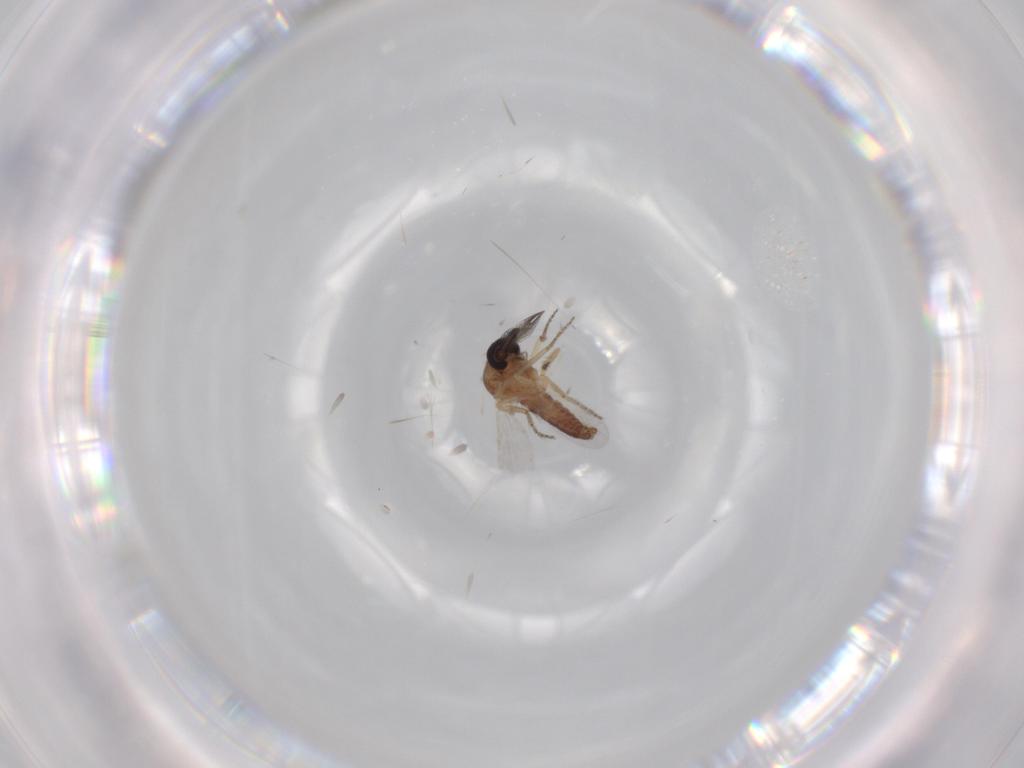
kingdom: Animalia
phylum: Arthropoda
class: Insecta
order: Diptera
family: Ceratopogonidae
